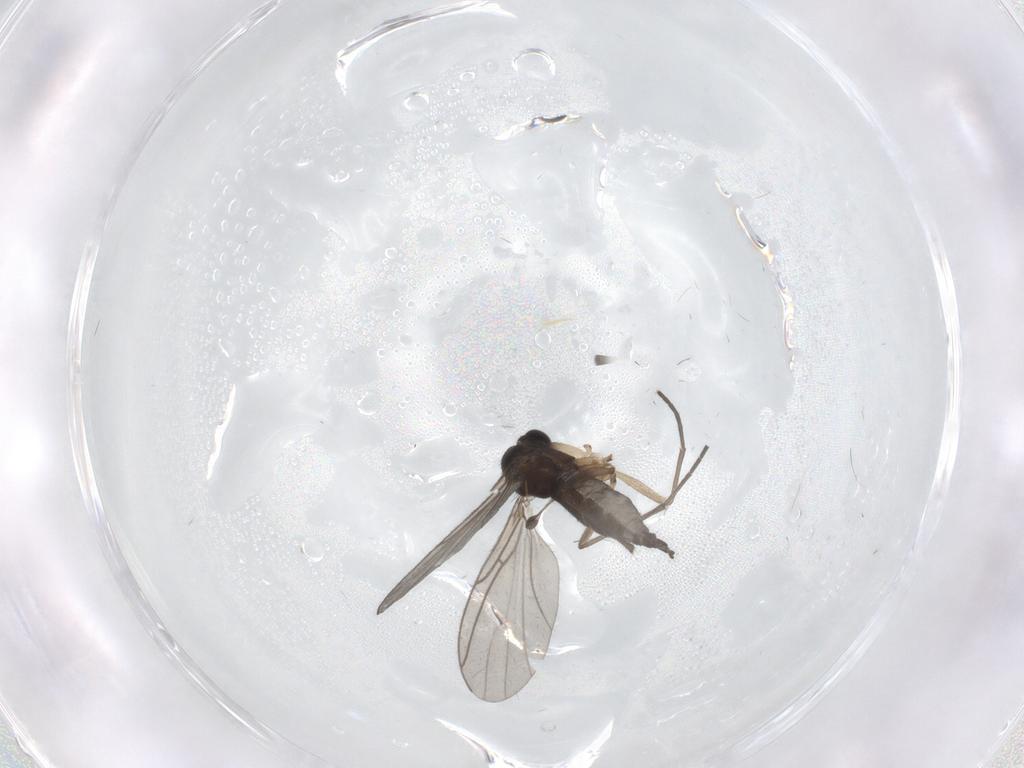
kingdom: Animalia
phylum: Arthropoda
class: Insecta
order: Diptera
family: Sciaridae
